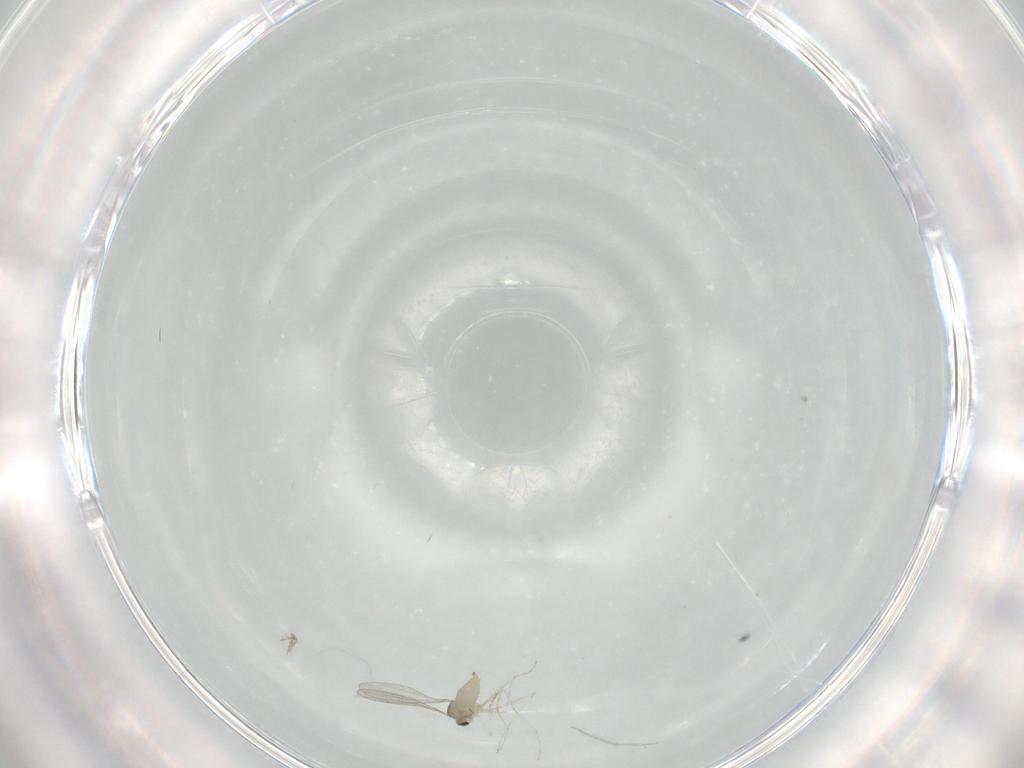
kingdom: Animalia
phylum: Arthropoda
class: Insecta
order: Diptera
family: Cecidomyiidae
